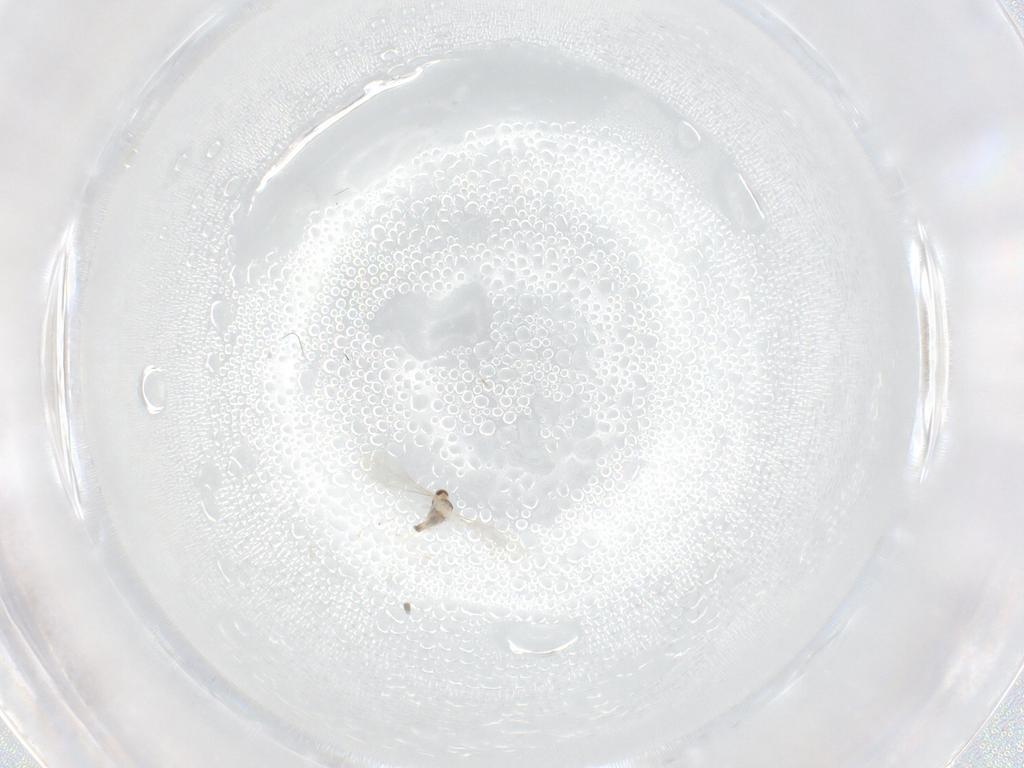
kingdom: Animalia
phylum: Arthropoda
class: Insecta
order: Diptera
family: Cecidomyiidae
